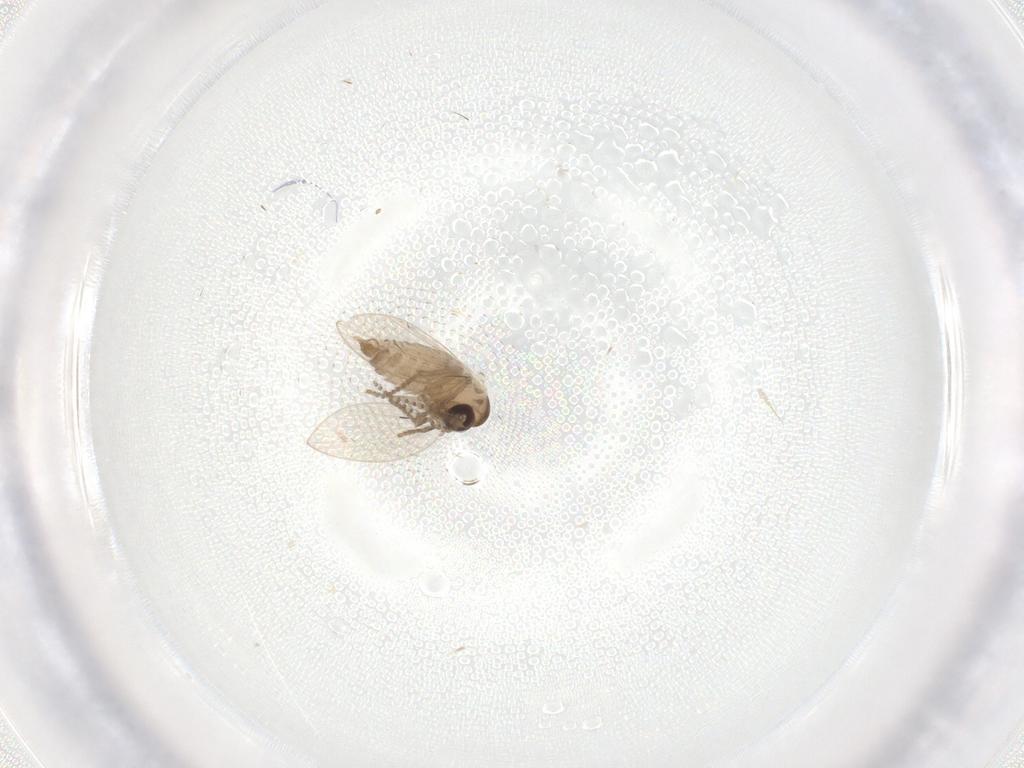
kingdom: Animalia
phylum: Arthropoda
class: Insecta
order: Diptera
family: Psychodidae
